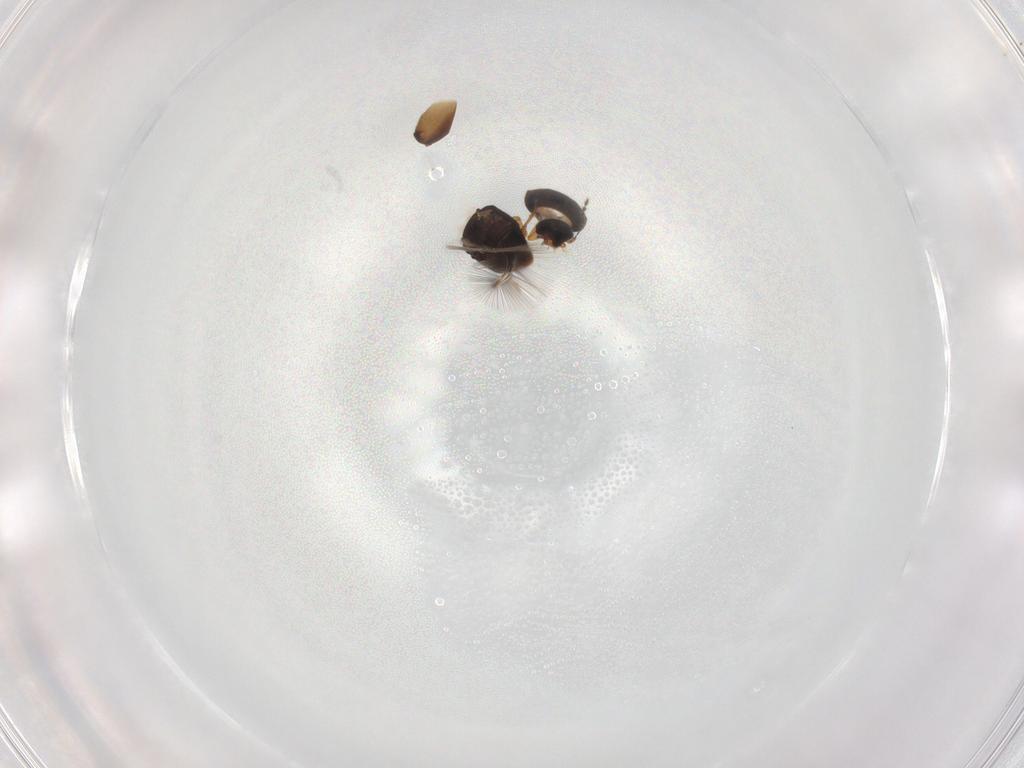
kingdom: Animalia
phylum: Arthropoda
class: Insecta
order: Coleoptera
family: Ptiliidae
